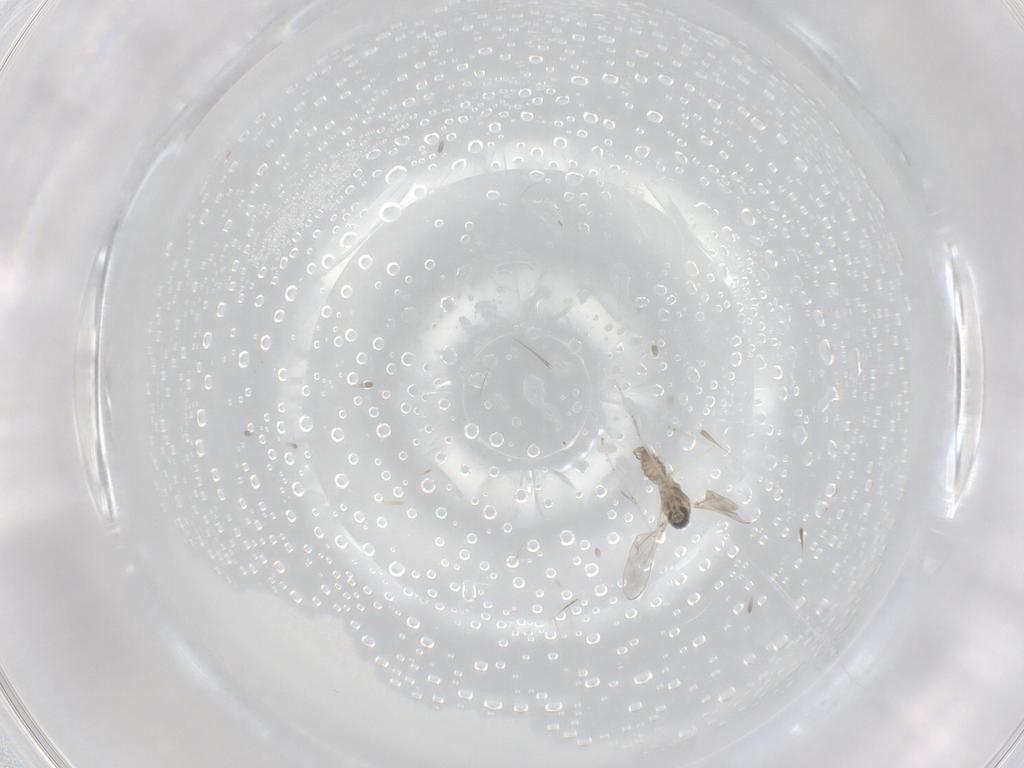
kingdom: Animalia
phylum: Arthropoda
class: Insecta
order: Diptera
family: Cecidomyiidae
